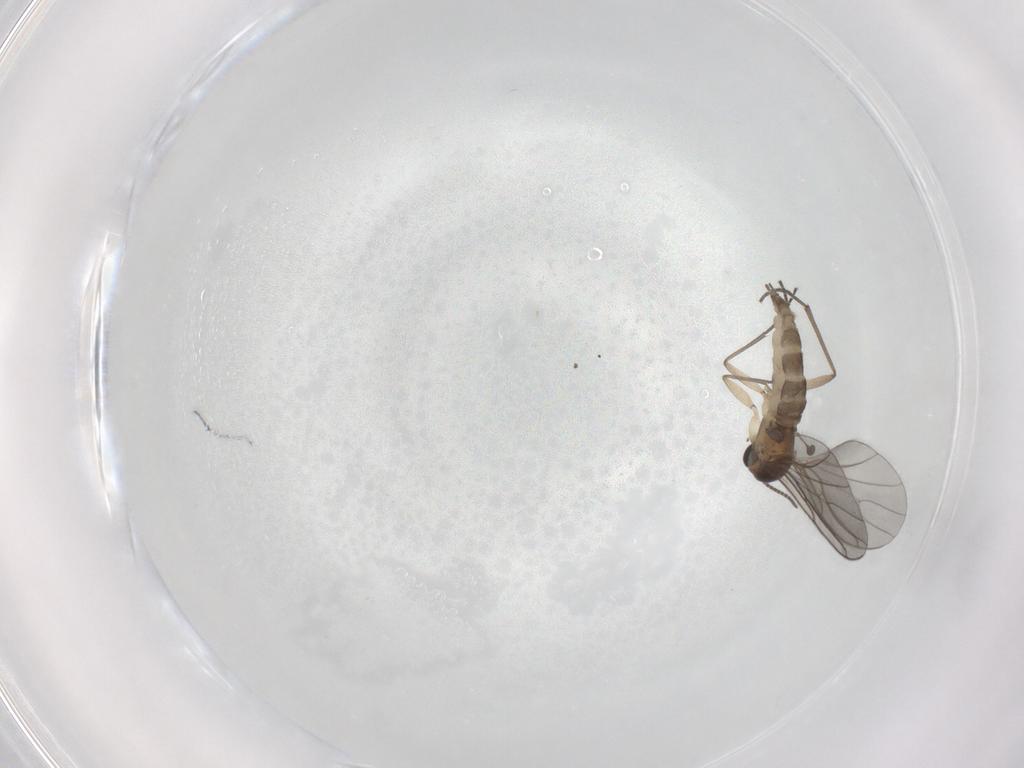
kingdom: Animalia
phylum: Arthropoda
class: Insecta
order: Diptera
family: Sciaridae
